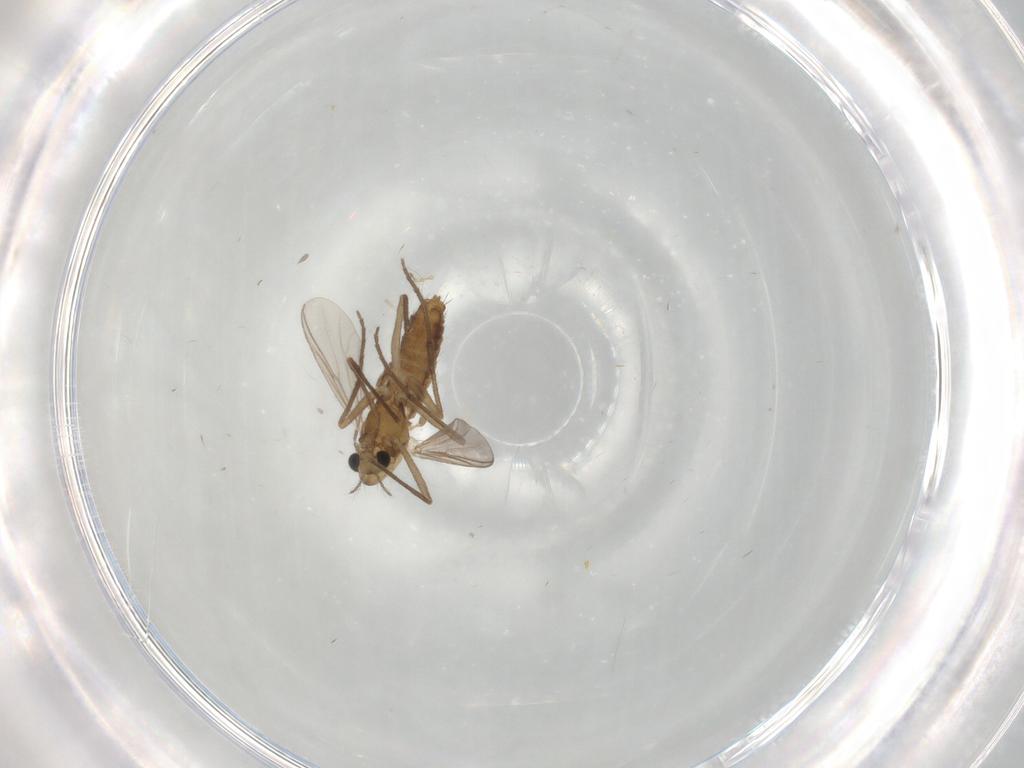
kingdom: Animalia
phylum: Arthropoda
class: Insecta
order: Diptera
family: Chironomidae
